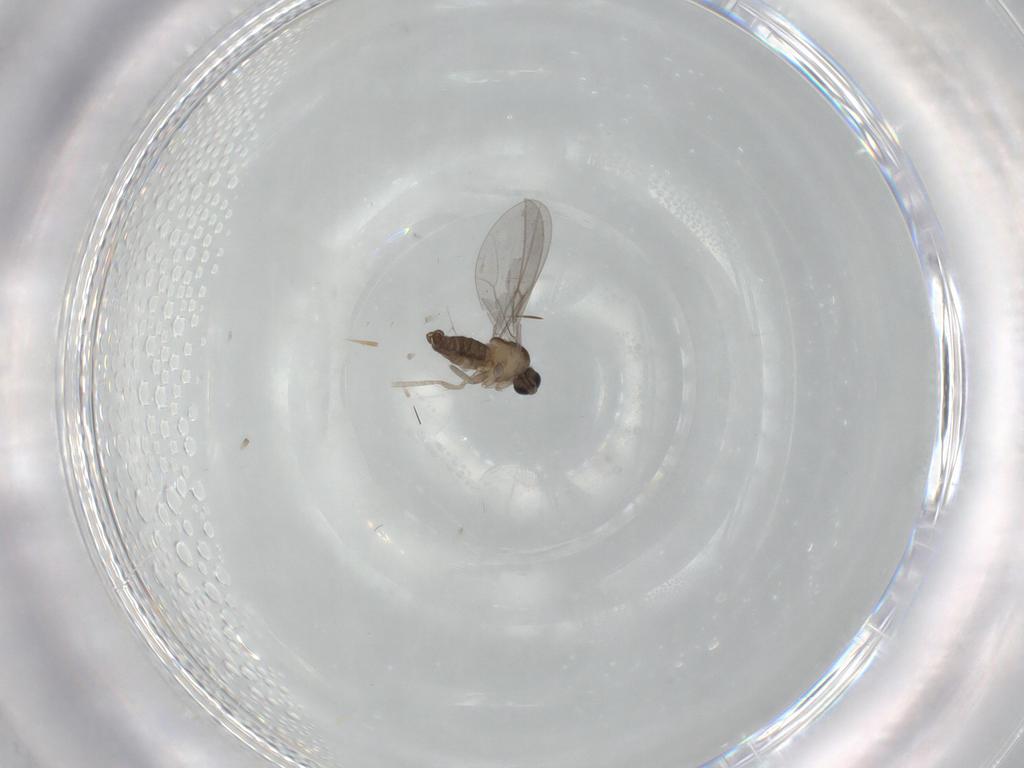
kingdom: Animalia
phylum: Arthropoda
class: Insecta
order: Diptera
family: Cecidomyiidae
